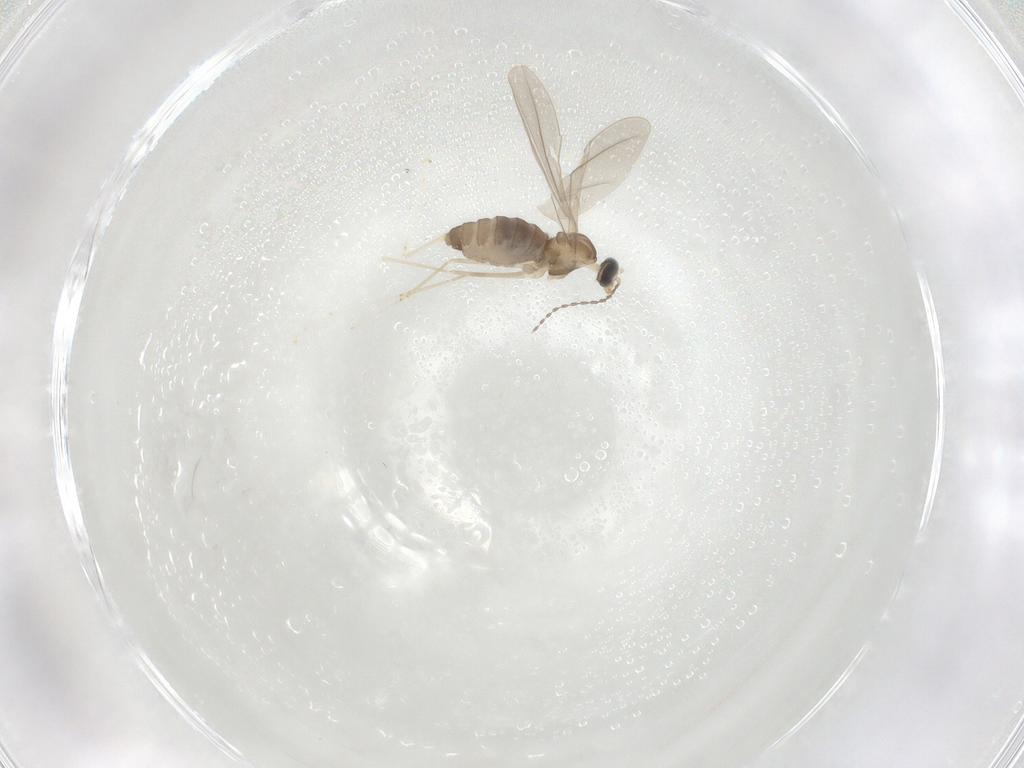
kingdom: Animalia
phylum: Arthropoda
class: Insecta
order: Diptera
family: Cecidomyiidae
